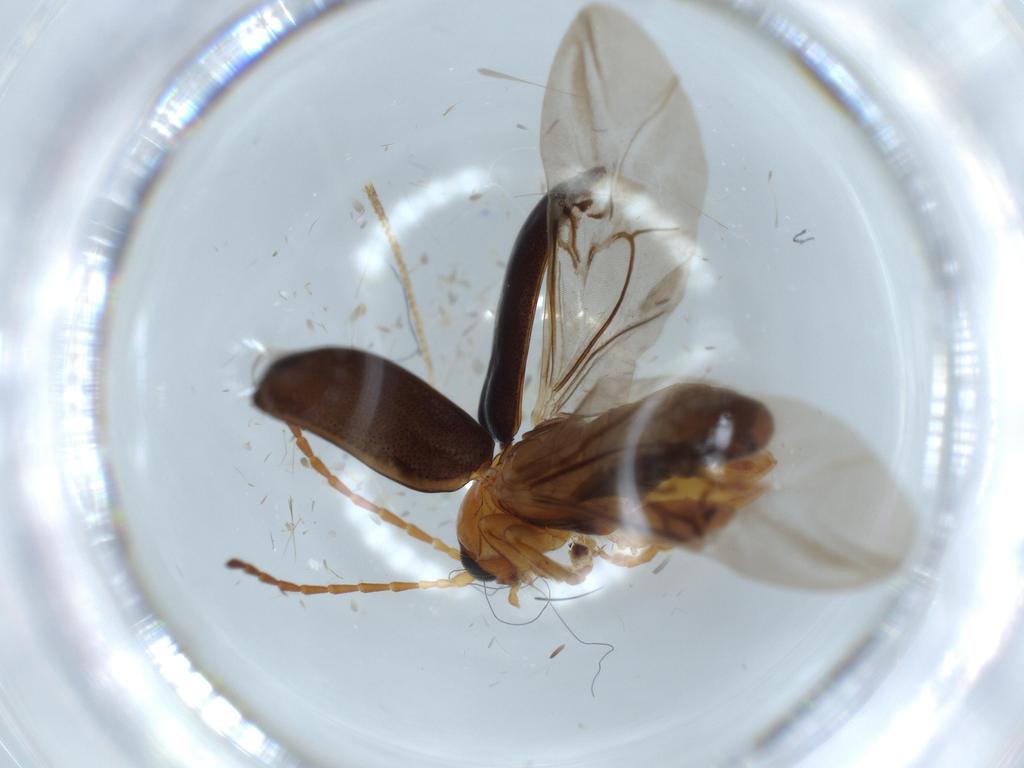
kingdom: Animalia
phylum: Arthropoda
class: Insecta
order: Coleoptera
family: Chrysomelidae
